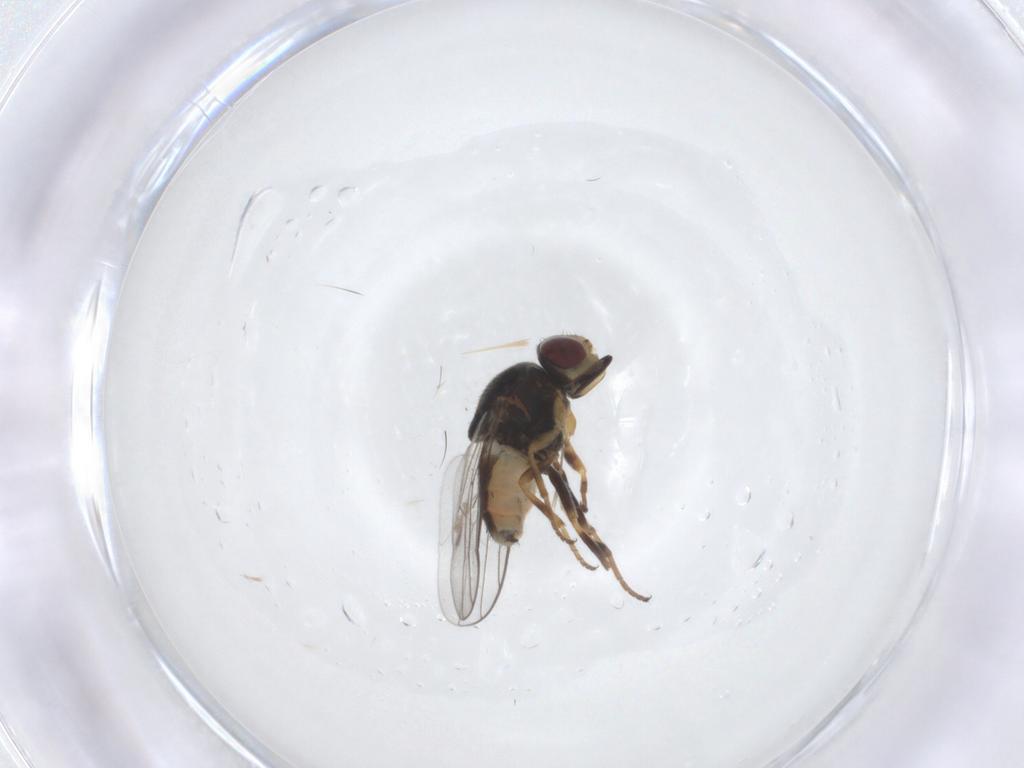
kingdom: Animalia
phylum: Arthropoda
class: Insecta
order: Diptera
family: Chloropidae
